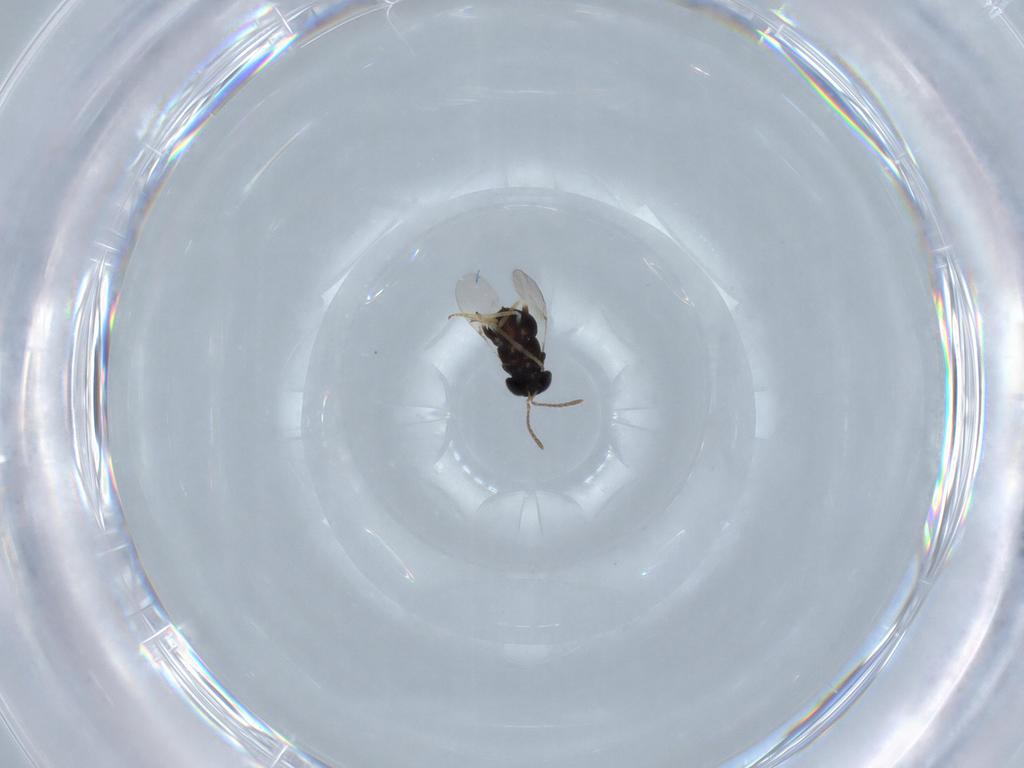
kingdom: Animalia
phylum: Arthropoda
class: Insecta
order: Hymenoptera
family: Encyrtidae
